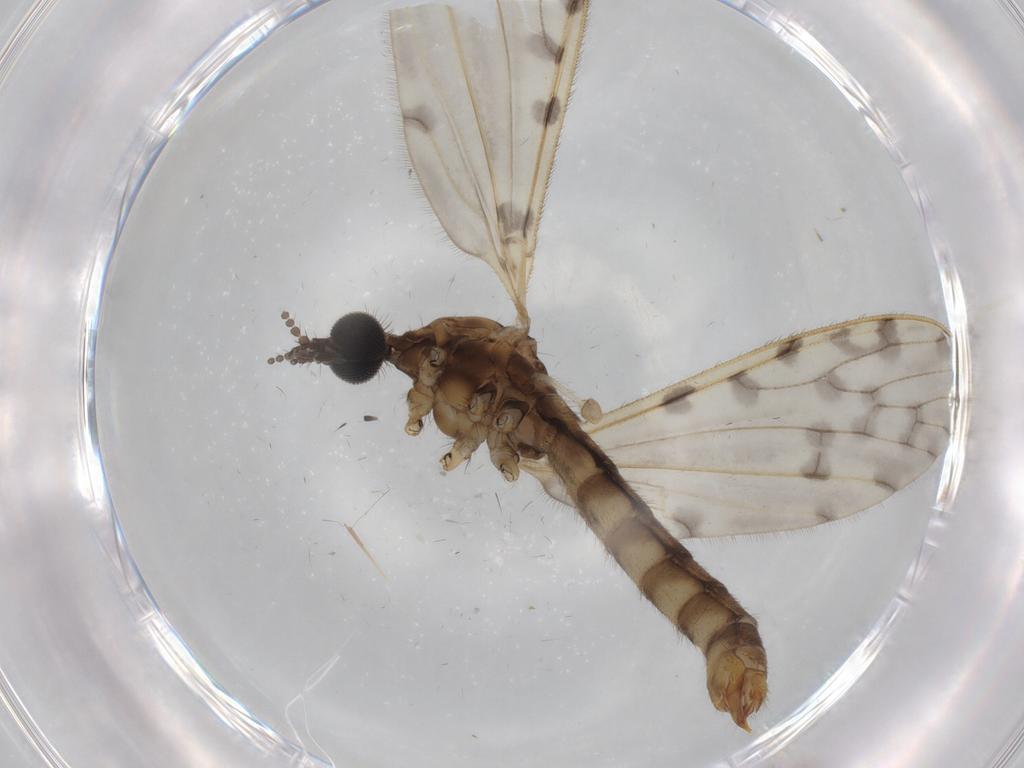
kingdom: Animalia
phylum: Arthropoda
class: Insecta
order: Diptera
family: Sciaridae
